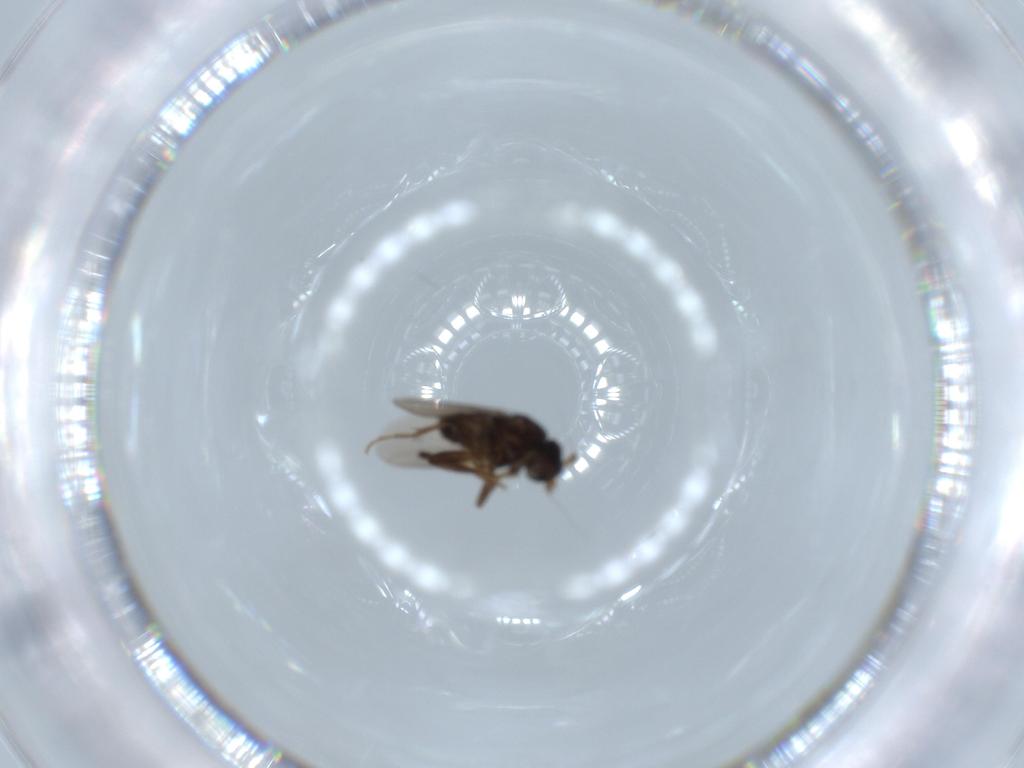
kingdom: Animalia
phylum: Arthropoda
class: Insecta
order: Diptera
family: Sphaeroceridae
